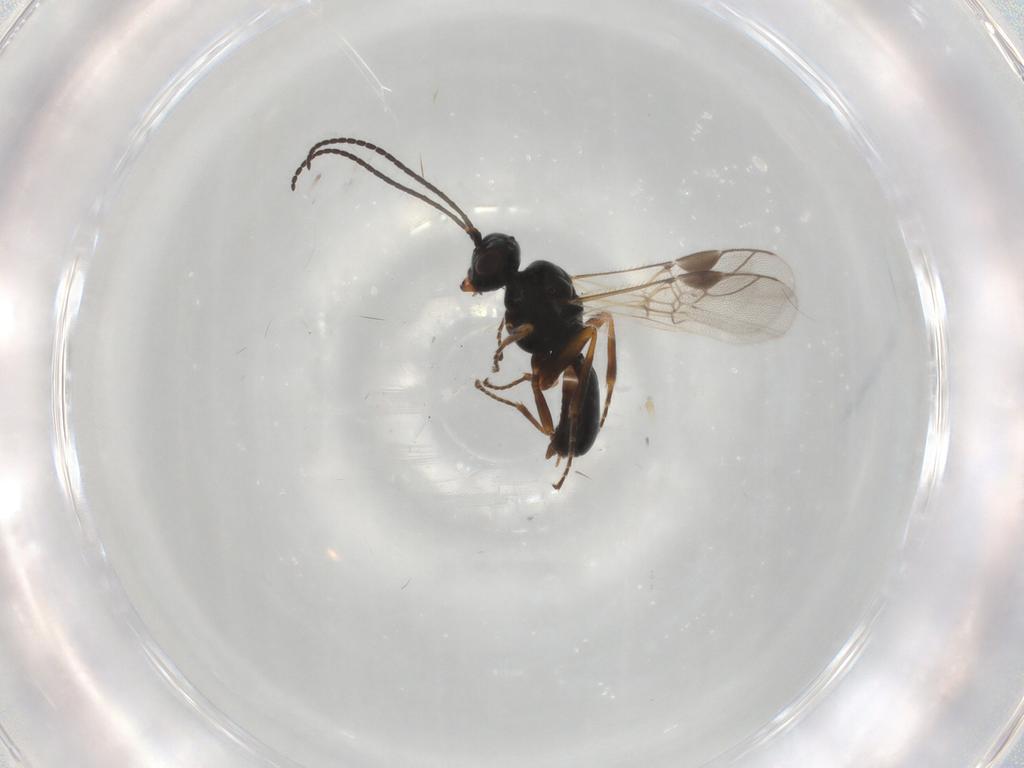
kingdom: Animalia
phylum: Arthropoda
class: Insecta
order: Hymenoptera
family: Braconidae
